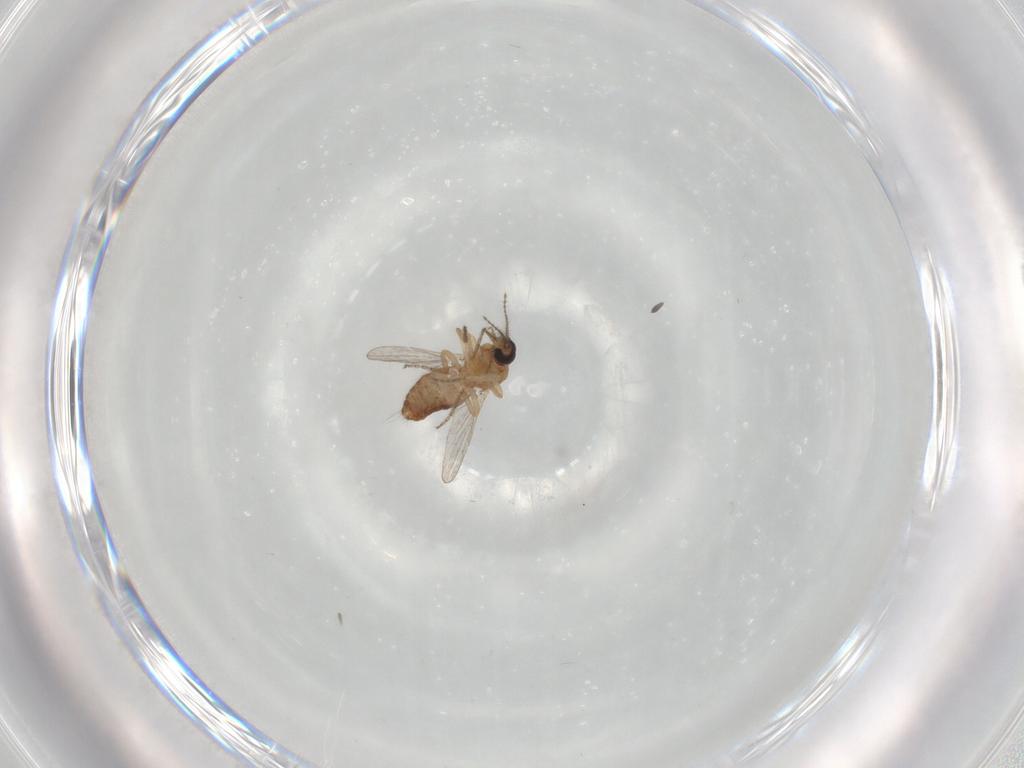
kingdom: Animalia
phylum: Arthropoda
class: Insecta
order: Diptera
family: Ceratopogonidae
